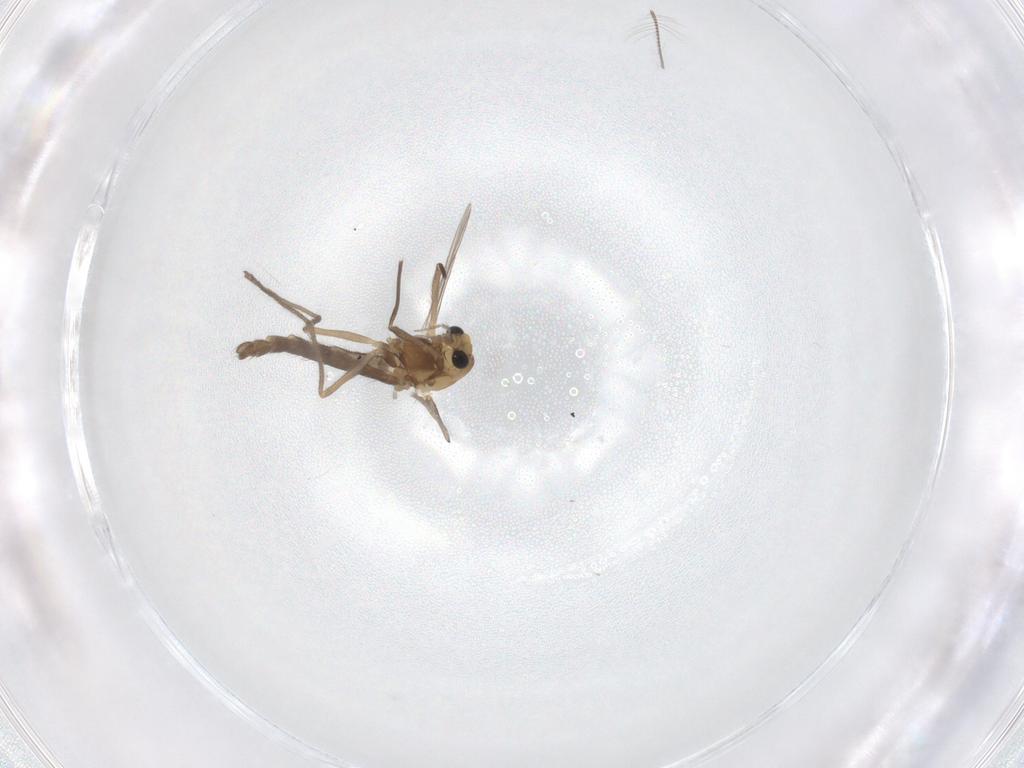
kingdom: Animalia
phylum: Arthropoda
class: Insecta
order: Diptera
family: Chironomidae
